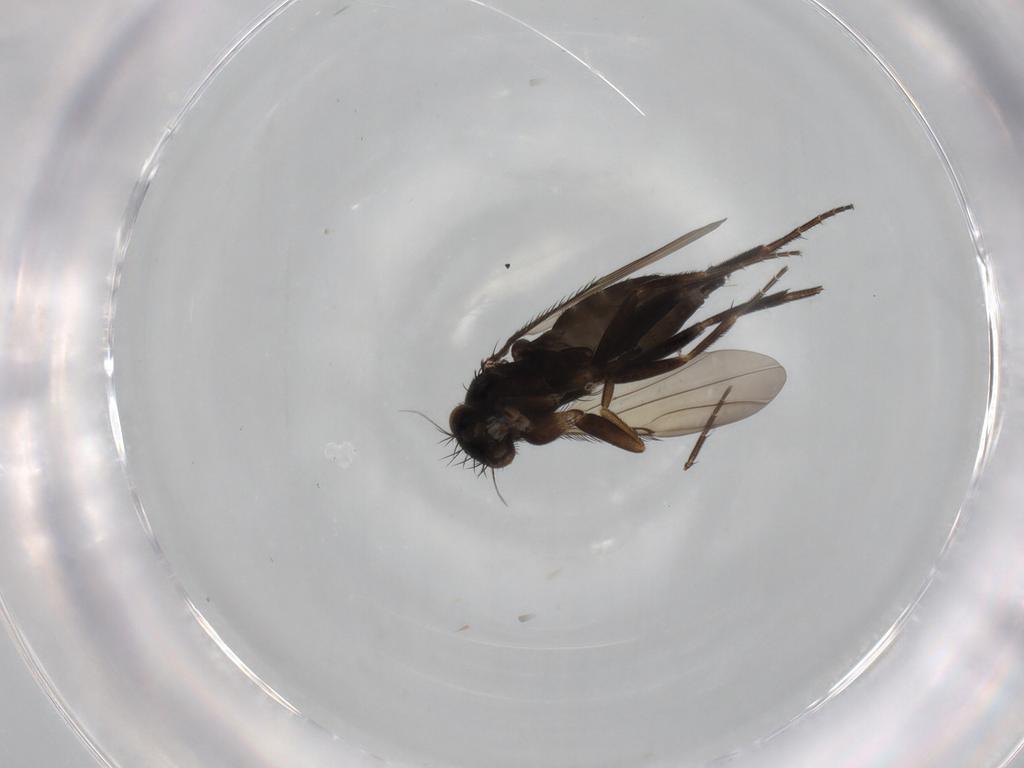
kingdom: Animalia
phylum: Arthropoda
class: Insecta
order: Diptera
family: Phoridae
